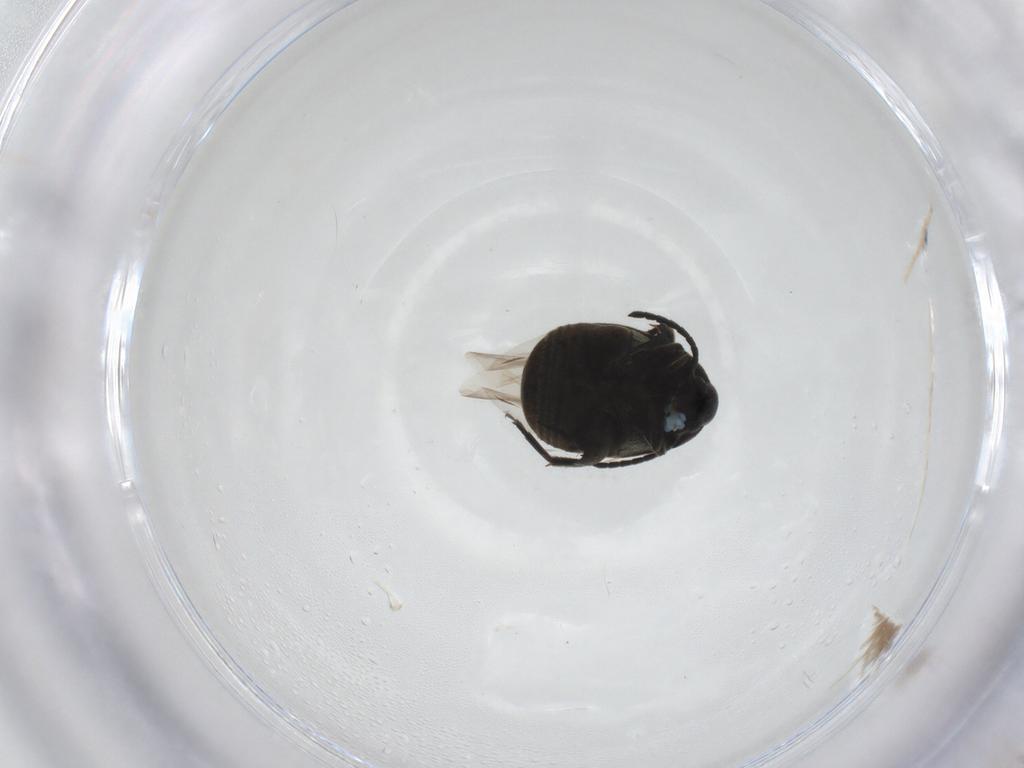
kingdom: Animalia
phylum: Arthropoda
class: Insecta
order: Coleoptera
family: Chrysomelidae
